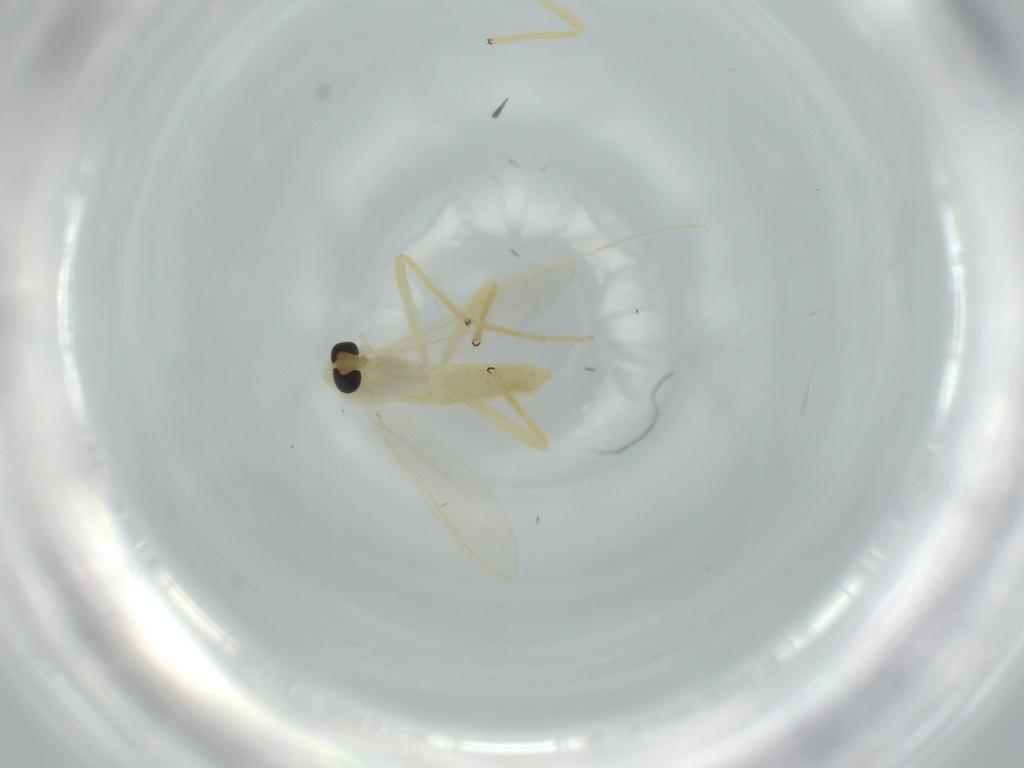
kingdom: Animalia
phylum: Arthropoda
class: Insecta
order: Diptera
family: Chironomidae
